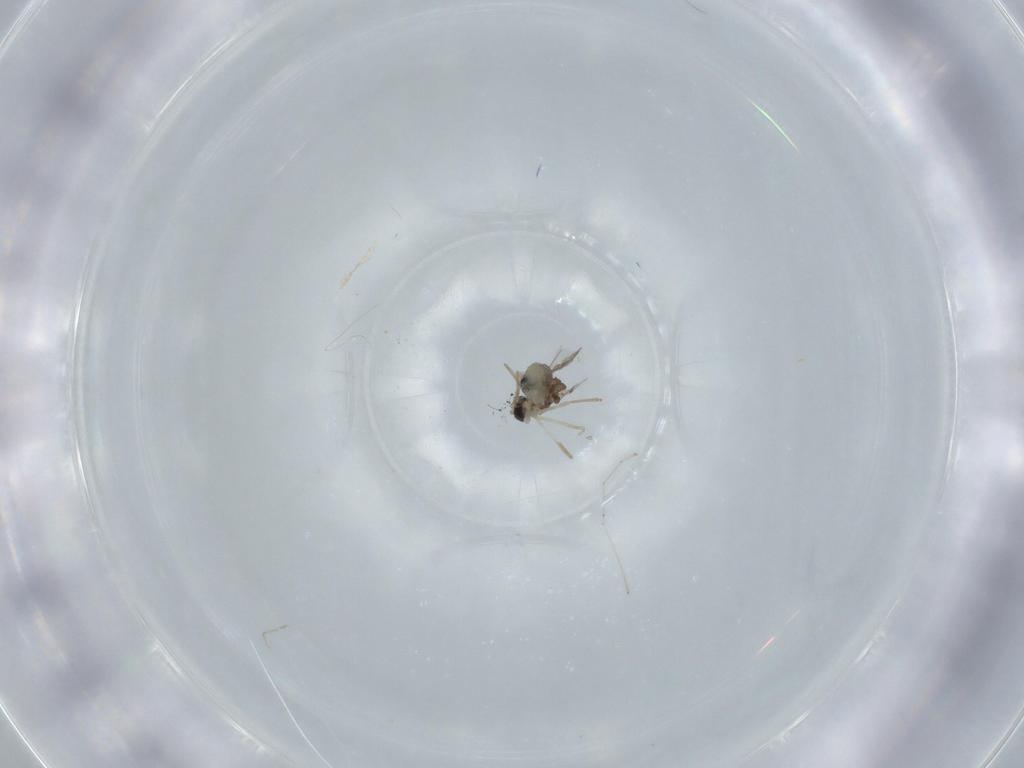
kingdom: Animalia
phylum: Arthropoda
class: Insecta
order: Diptera
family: Cecidomyiidae
